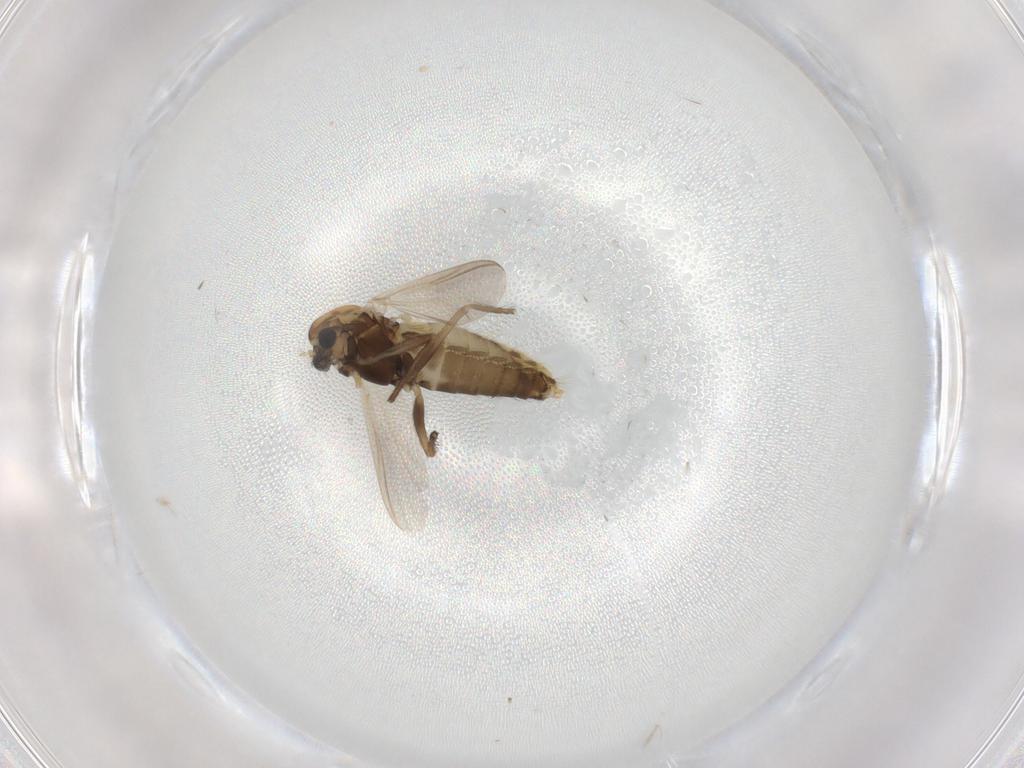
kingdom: Animalia
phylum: Arthropoda
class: Insecta
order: Diptera
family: Chironomidae
